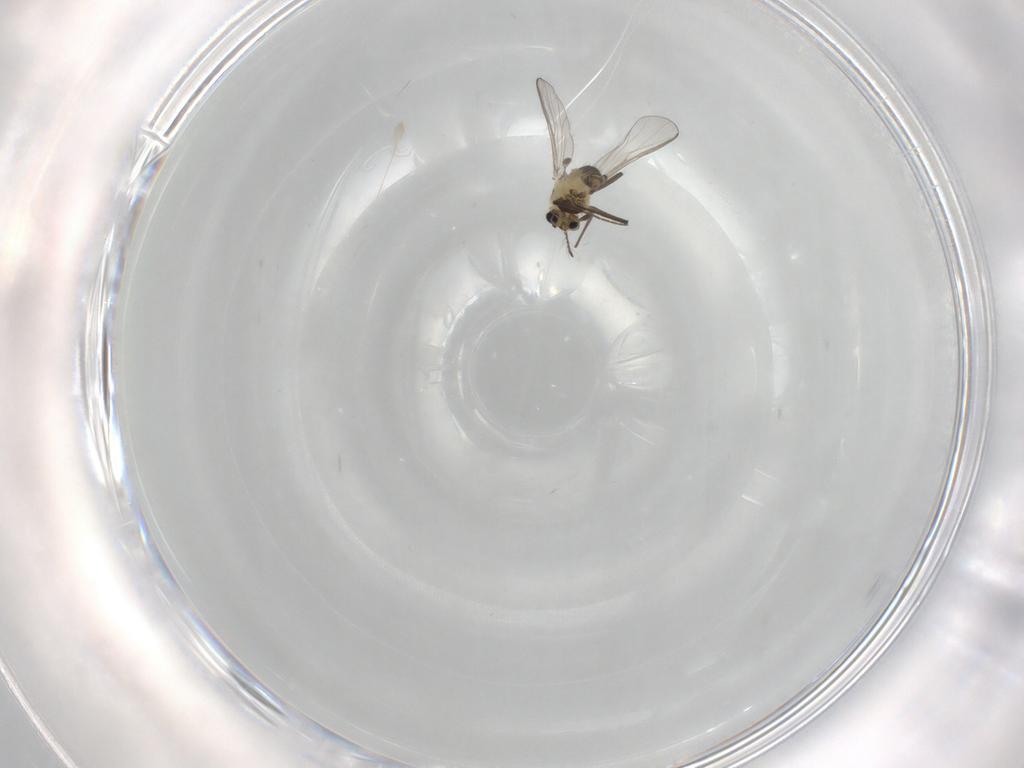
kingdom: Animalia
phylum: Arthropoda
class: Insecta
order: Diptera
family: Chironomidae
